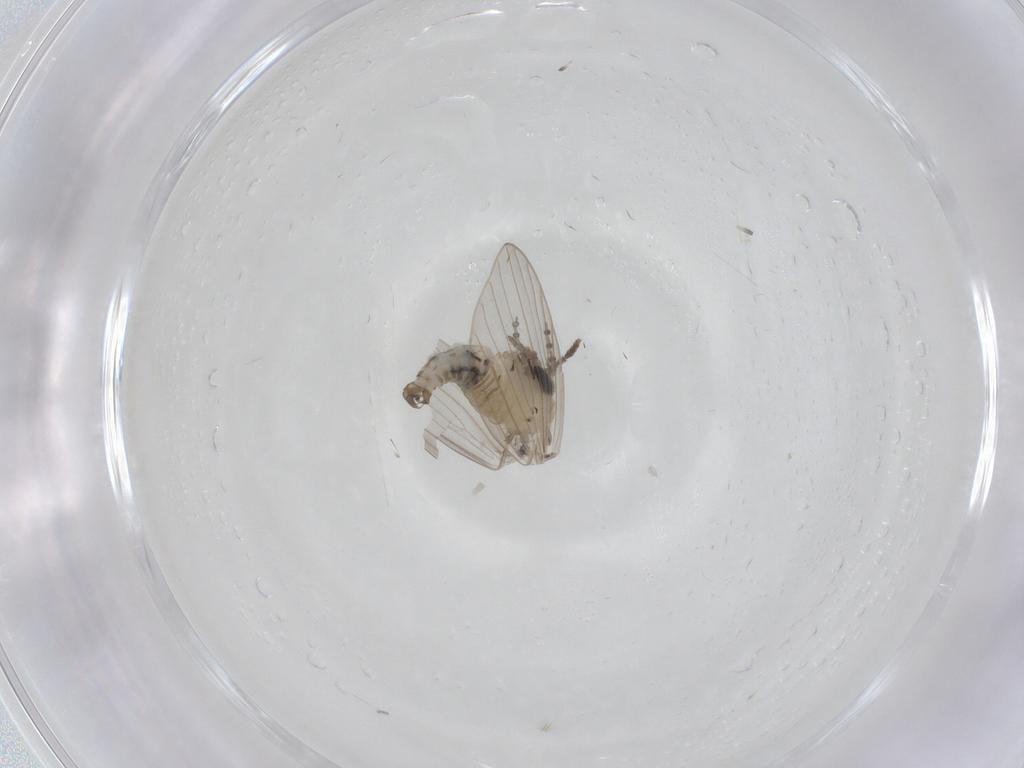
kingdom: Animalia
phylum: Arthropoda
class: Insecta
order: Diptera
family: Psychodidae
